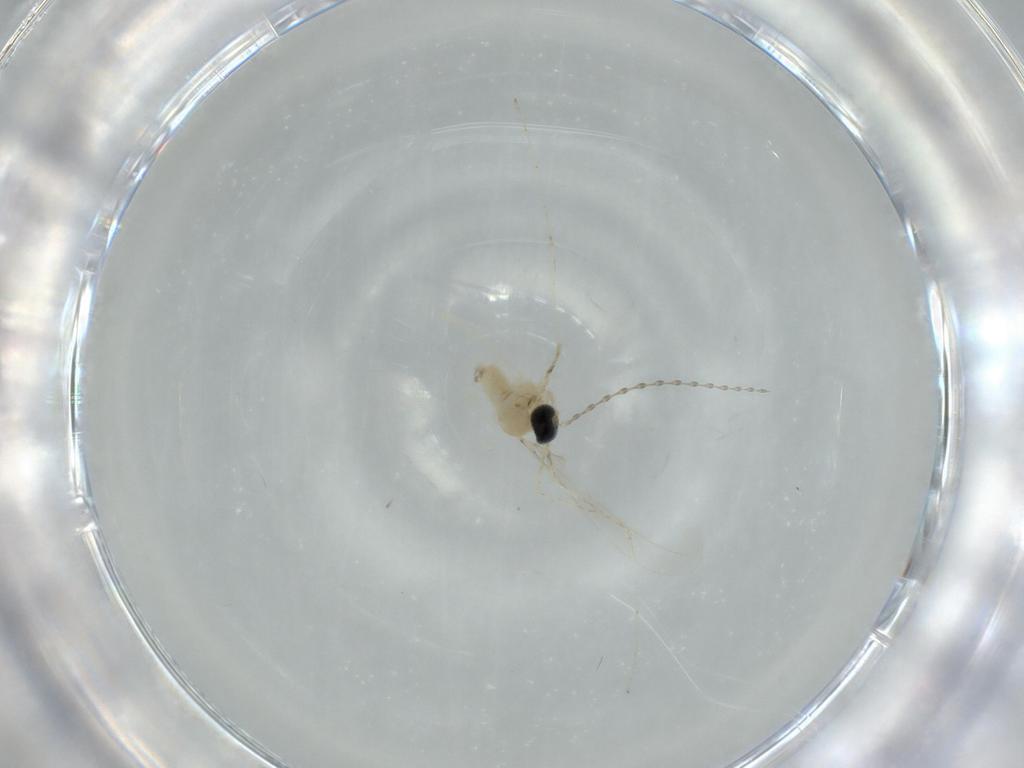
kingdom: Animalia
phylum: Arthropoda
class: Insecta
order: Diptera
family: Cecidomyiidae
